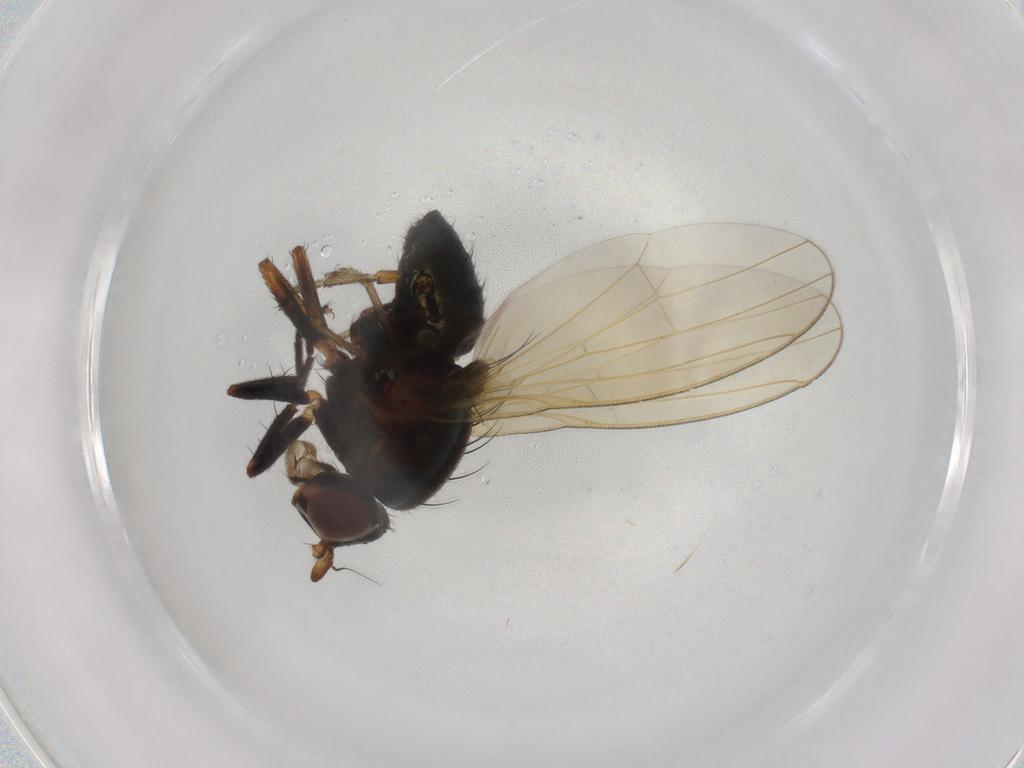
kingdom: Animalia
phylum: Arthropoda
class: Insecta
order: Diptera
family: Lauxaniidae
